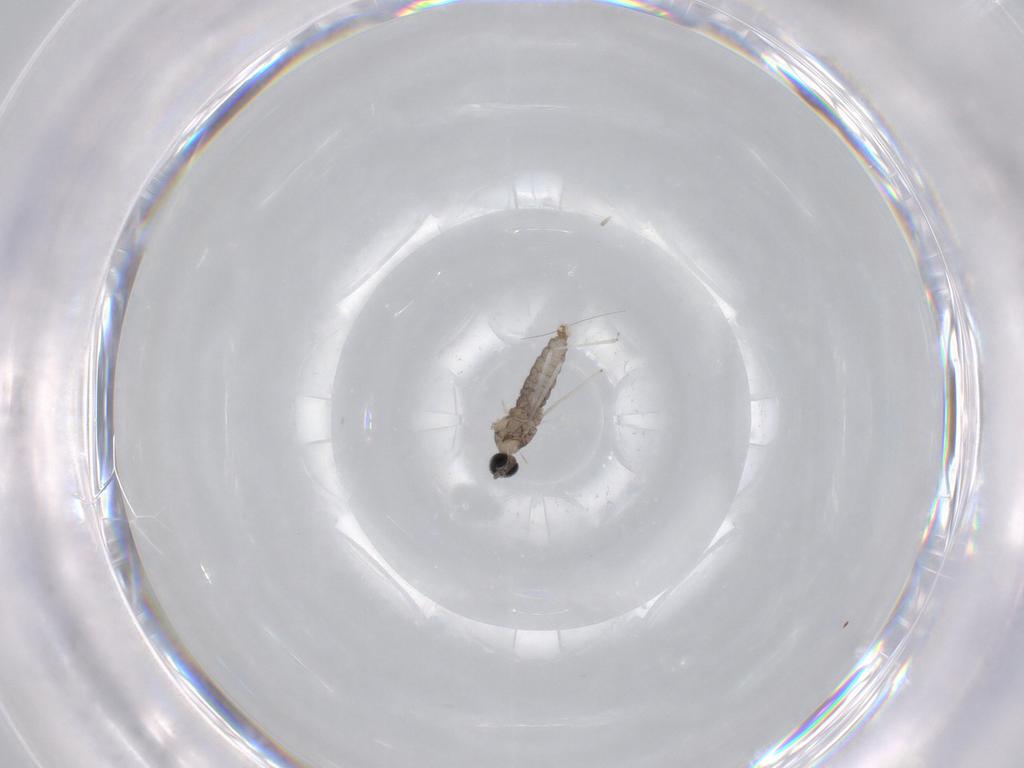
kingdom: Animalia
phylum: Arthropoda
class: Insecta
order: Diptera
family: Cecidomyiidae
